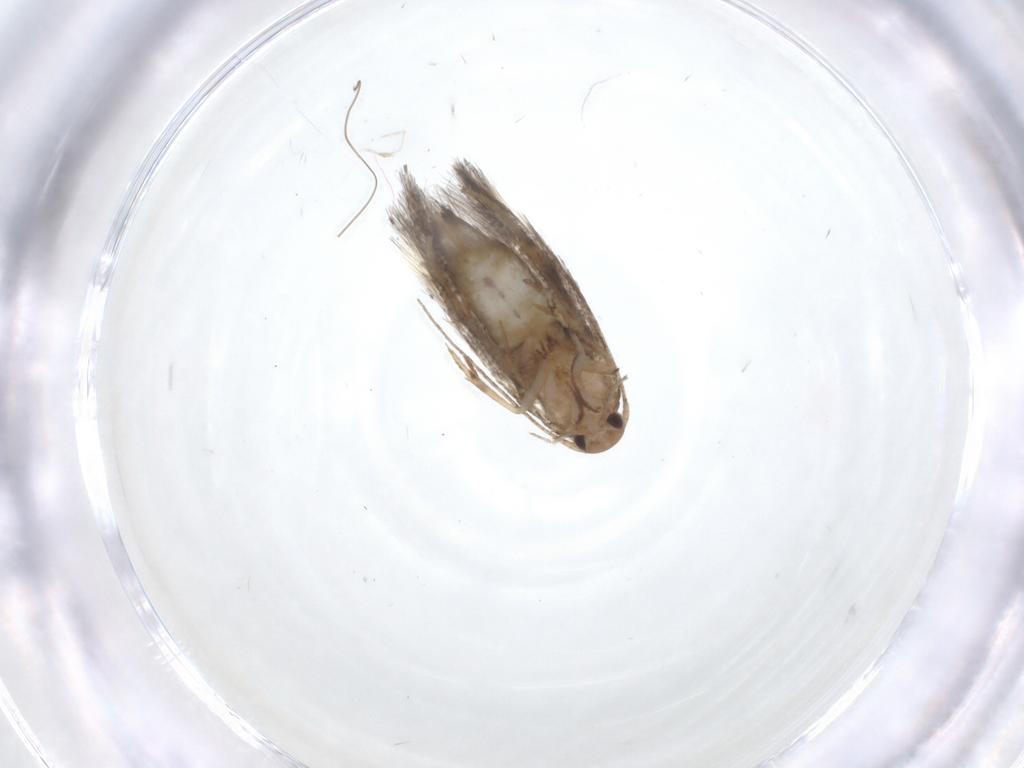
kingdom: Animalia
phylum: Arthropoda
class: Insecta
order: Lepidoptera
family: Elachistidae
